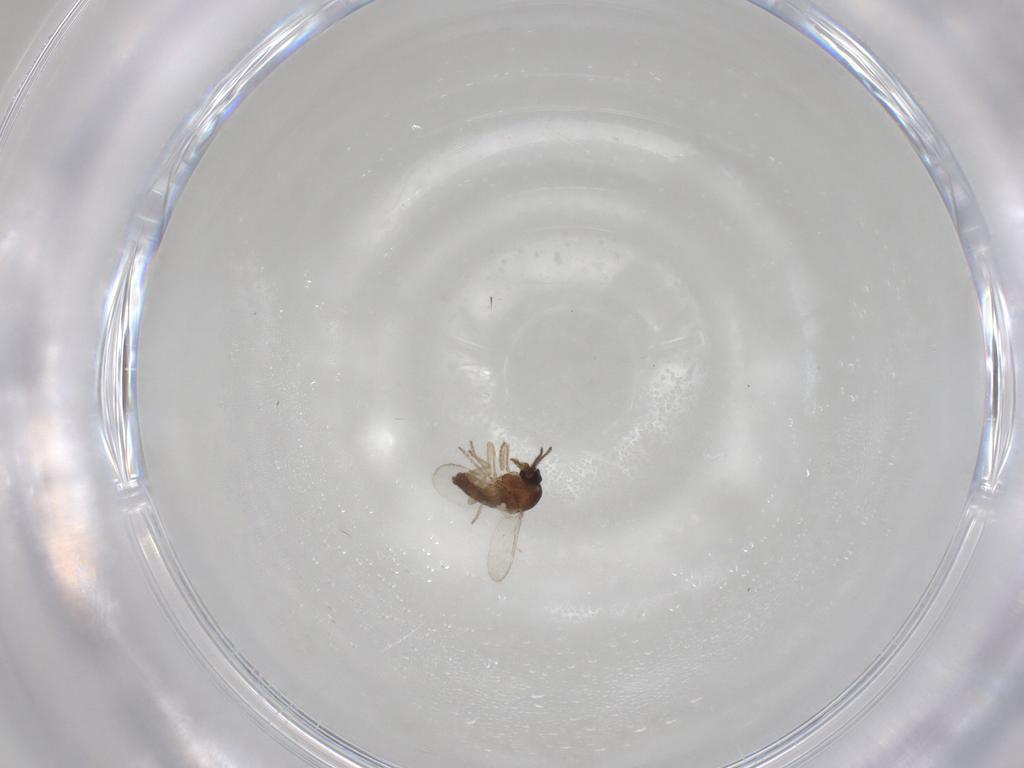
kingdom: Animalia
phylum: Arthropoda
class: Insecta
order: Diptera
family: Ceratopogonidae
